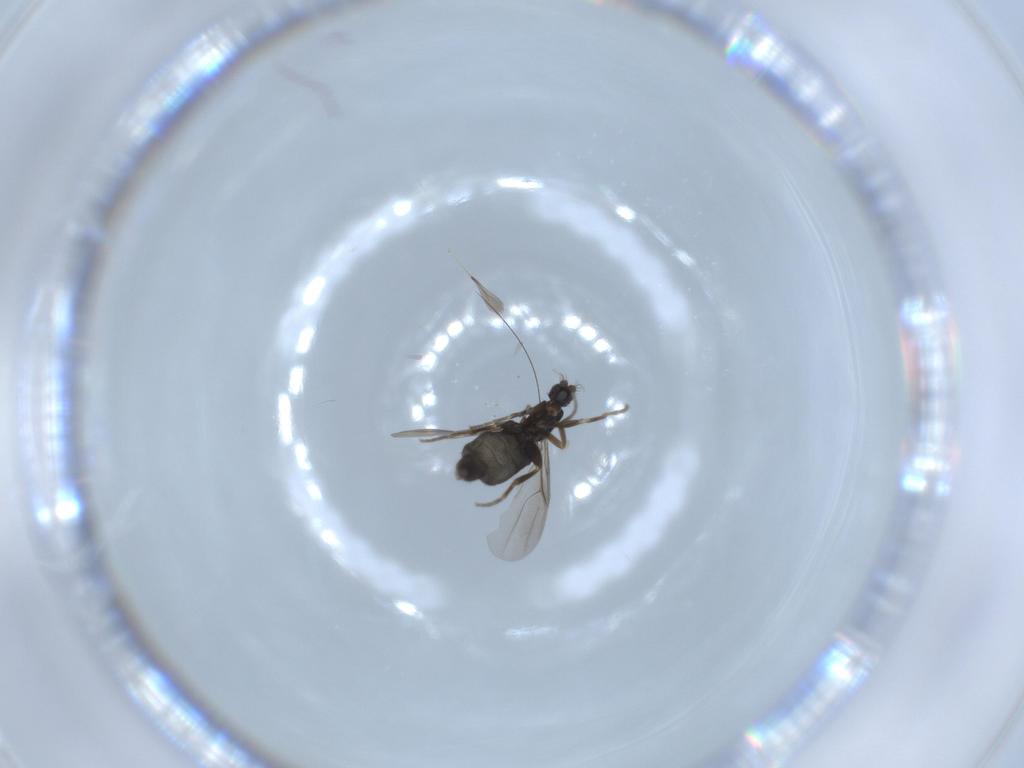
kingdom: Animalia
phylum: Arthropoda
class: Insecta
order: Diptera
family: Phoridae
